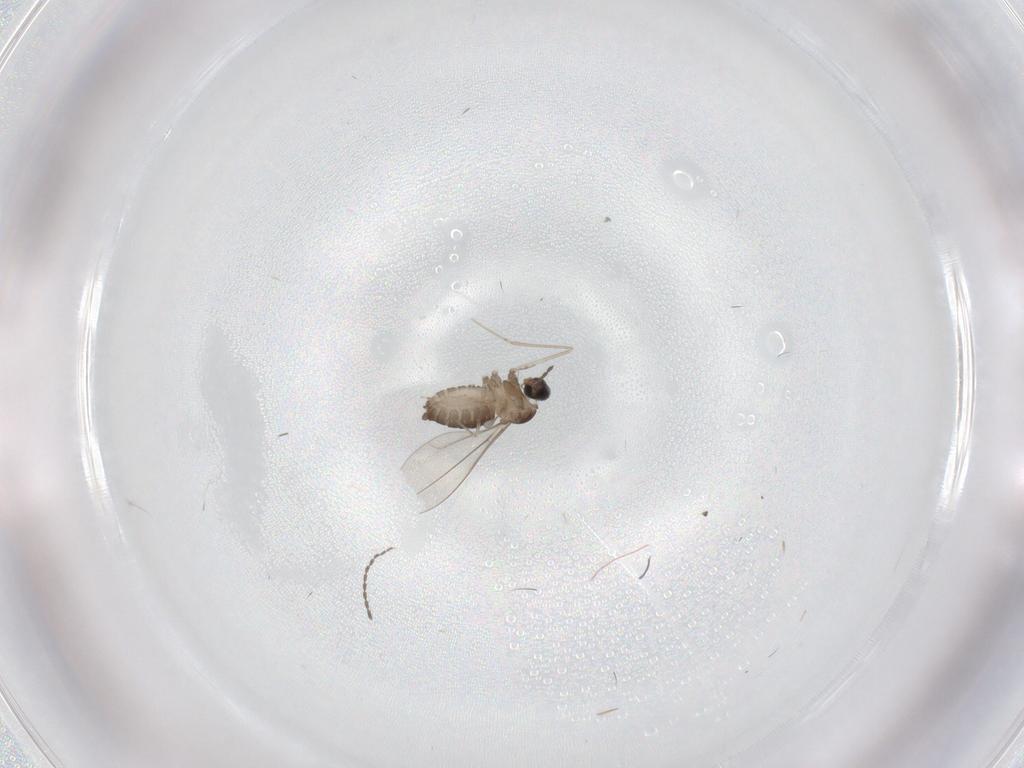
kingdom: Animalia
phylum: Arthropoda
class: Insecta
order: Diptera
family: Cecidomyiidae
